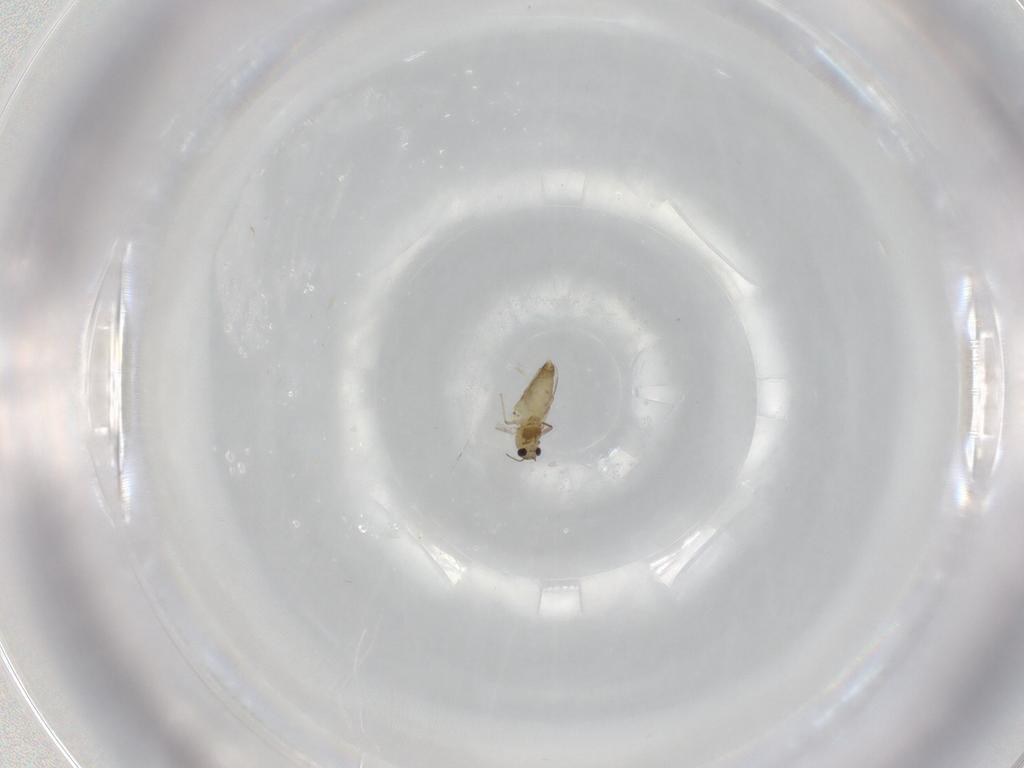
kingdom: Animalia
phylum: Arthropoda
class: Insecta
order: Diptera
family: Chironomidae
